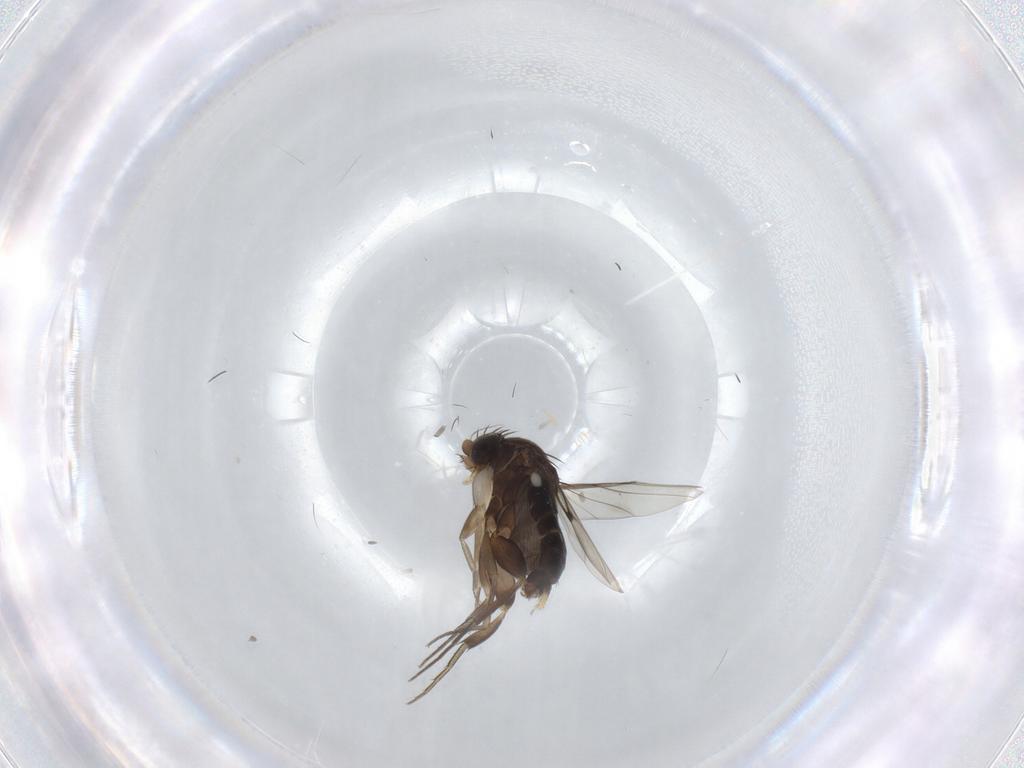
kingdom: Animalia
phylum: Arthropoda
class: Insecta
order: Diptera
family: Phoridae
